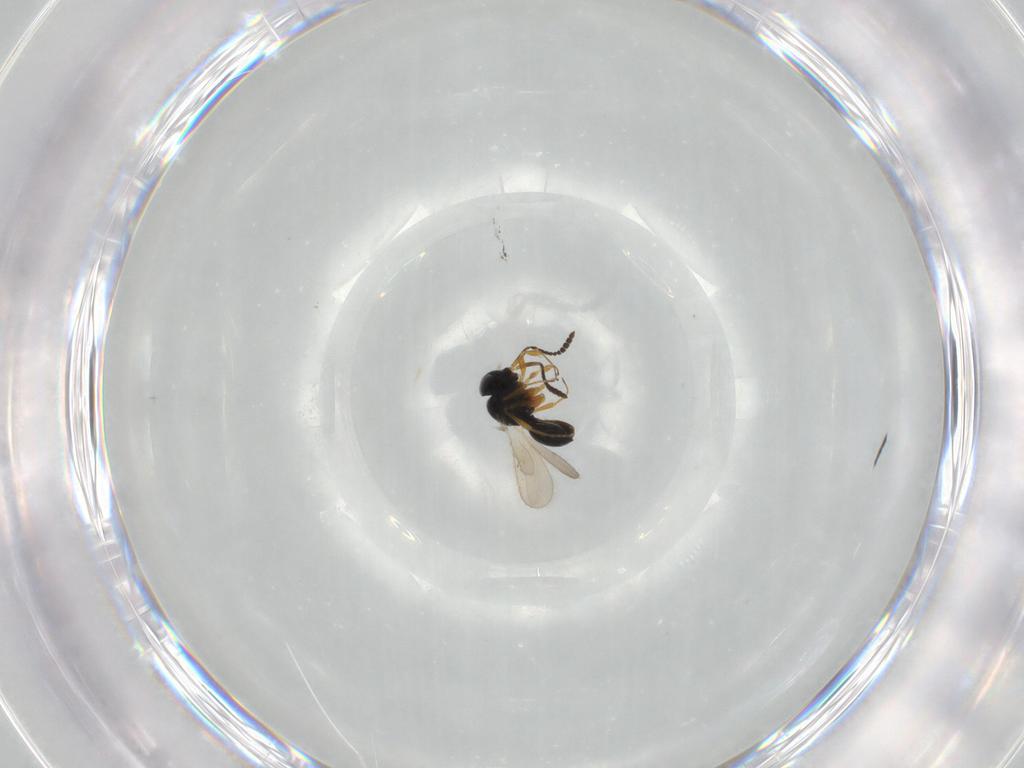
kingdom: Animalia
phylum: Arthropoda
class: Insecta
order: Hymenoptera
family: Scelionidae
